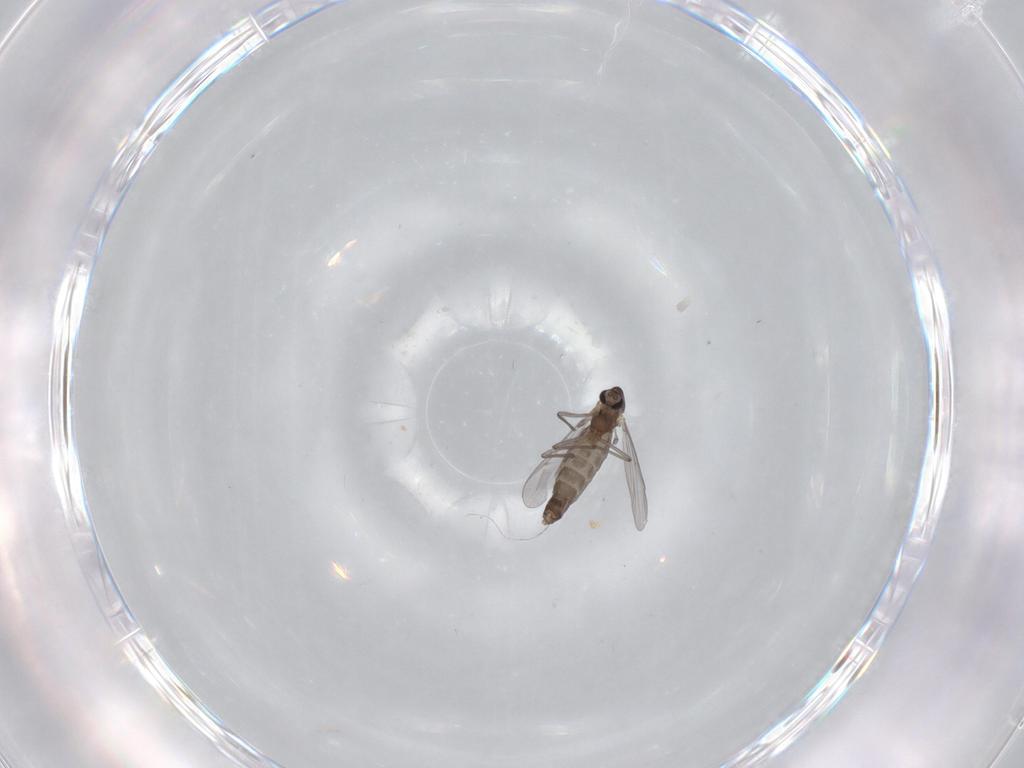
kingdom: Animalia
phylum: Arthropoda
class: Insecta
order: Diptera
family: Chironomidae
